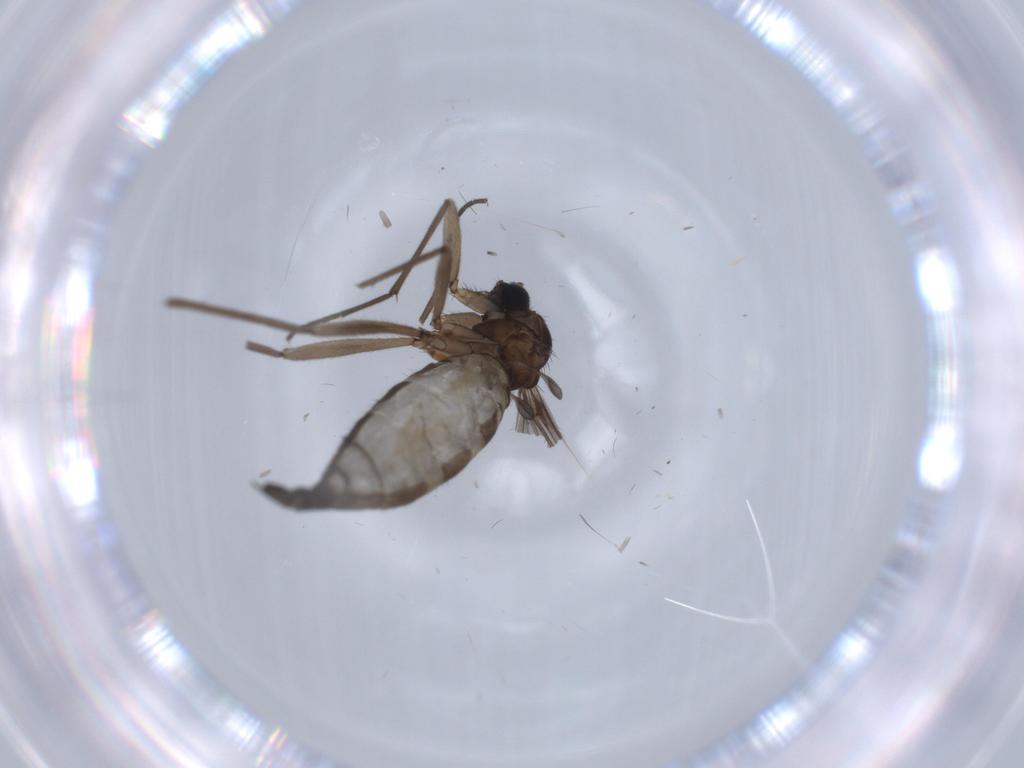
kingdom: Animalia
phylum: Arthropoda
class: Insecta
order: Diptera
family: Sciaridae
